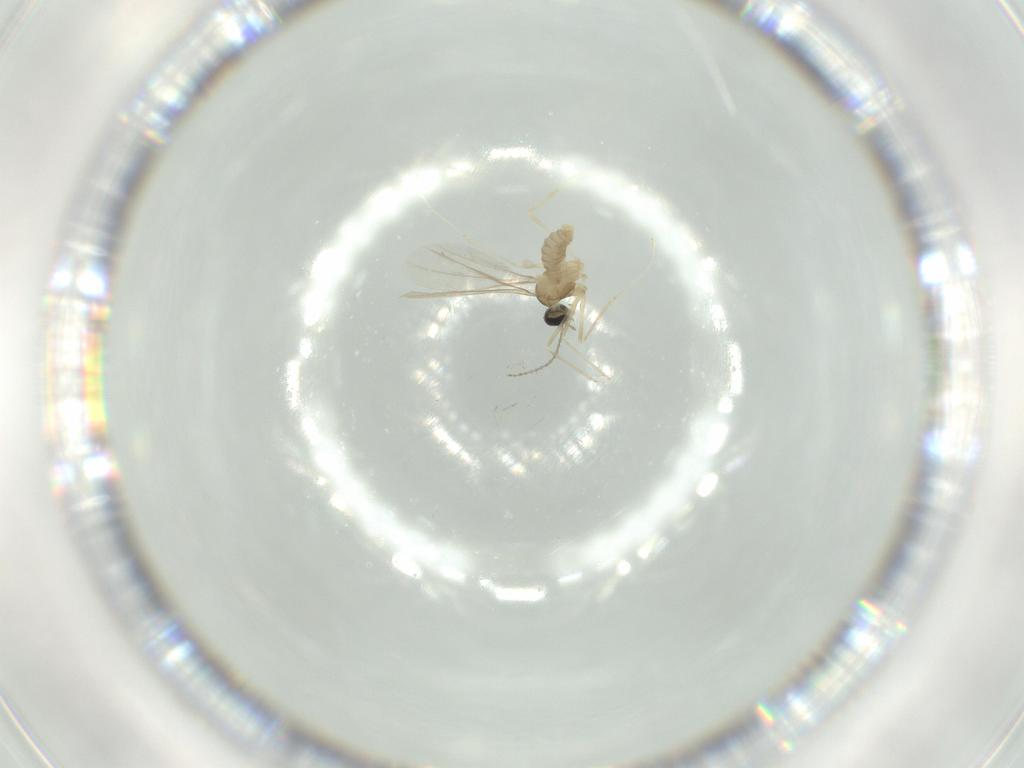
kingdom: Animalia
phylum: Arthropoda
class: Insecta
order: Diptera
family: Cecidomyiidae
